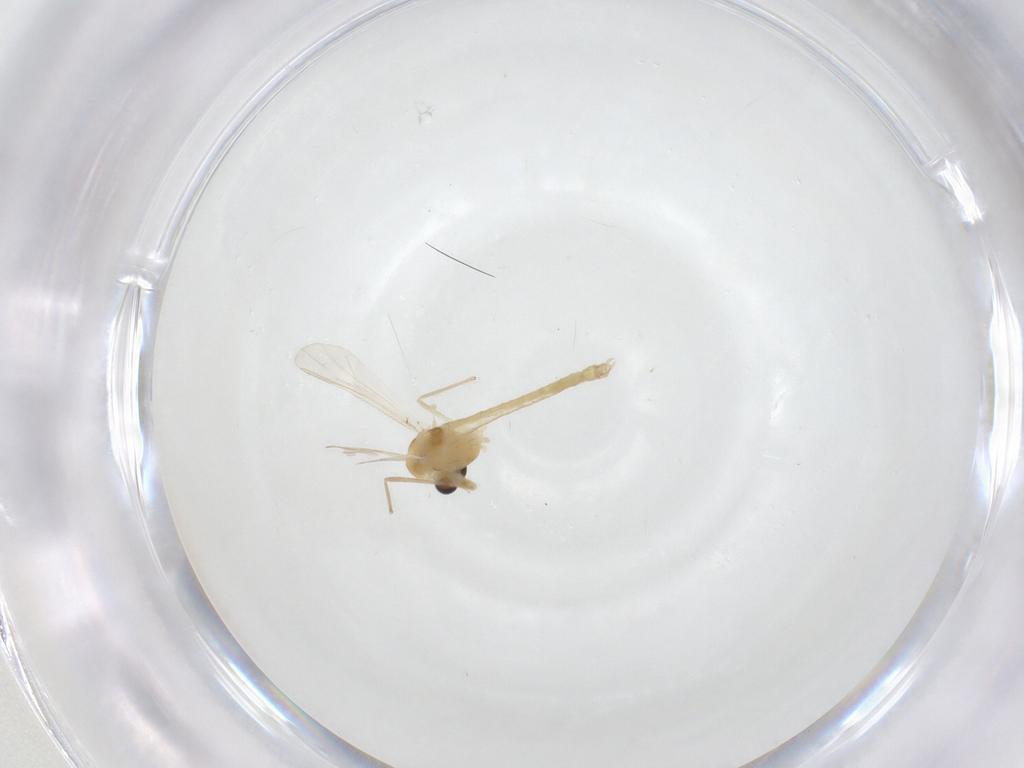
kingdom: Animalia
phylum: Arthropoda
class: Insecta
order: Diptera
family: Chironomidae
